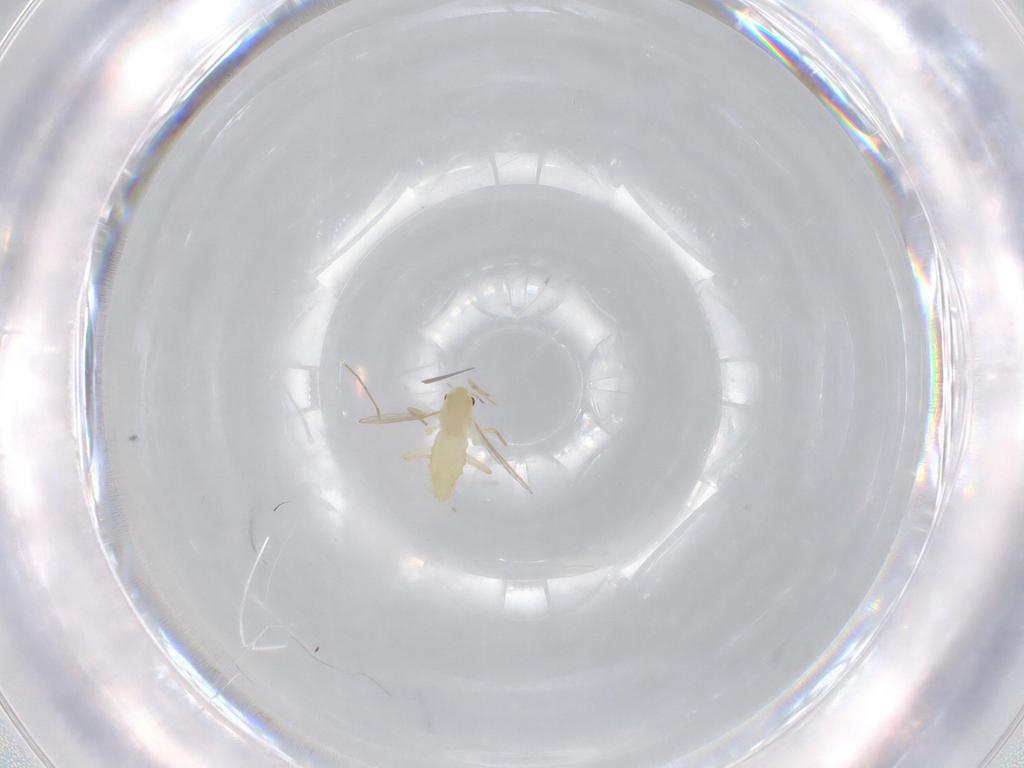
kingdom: Animalia
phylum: Arthropoda
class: Insecta
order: Diptera
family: Chironomidae
